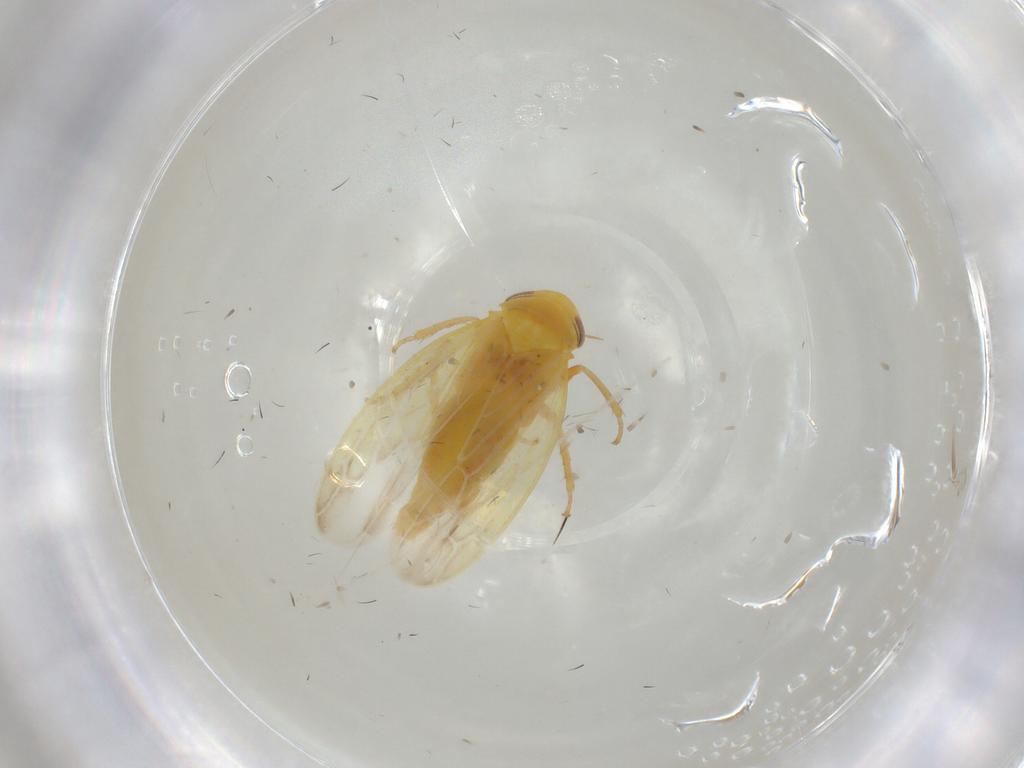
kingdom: Animalia
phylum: Arthropoda
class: Insecta
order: Hemiptera
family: Cicadellidae
